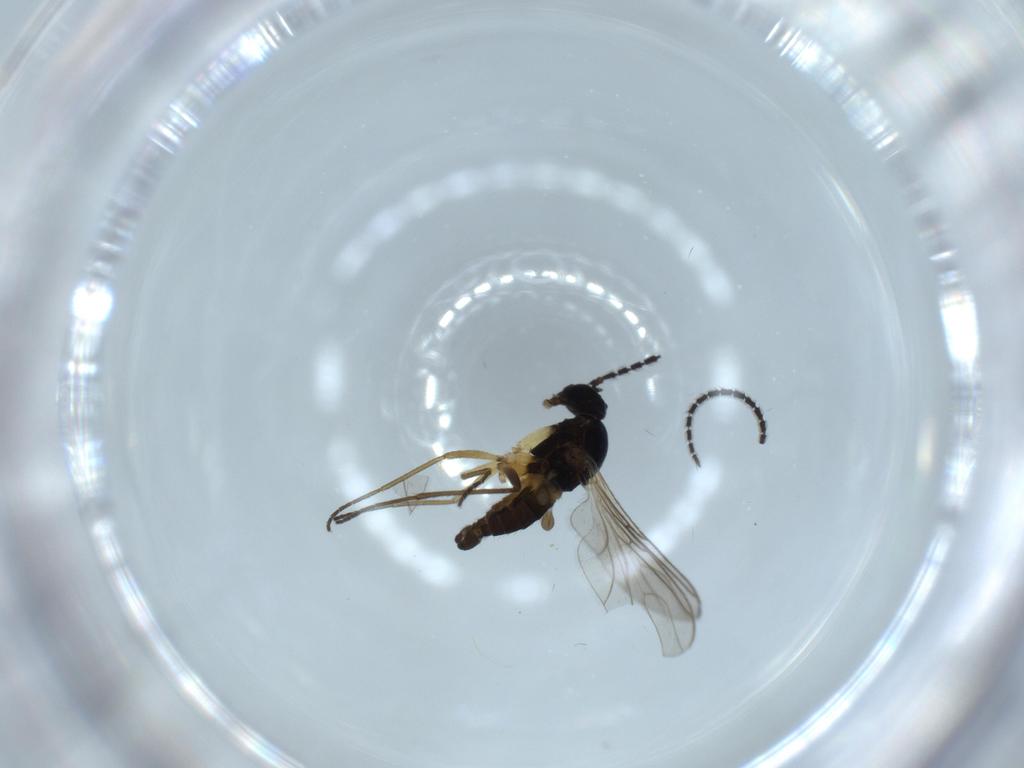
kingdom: Animalia
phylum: Arthropoda
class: Insecta
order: Diptera
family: Sciaridae
